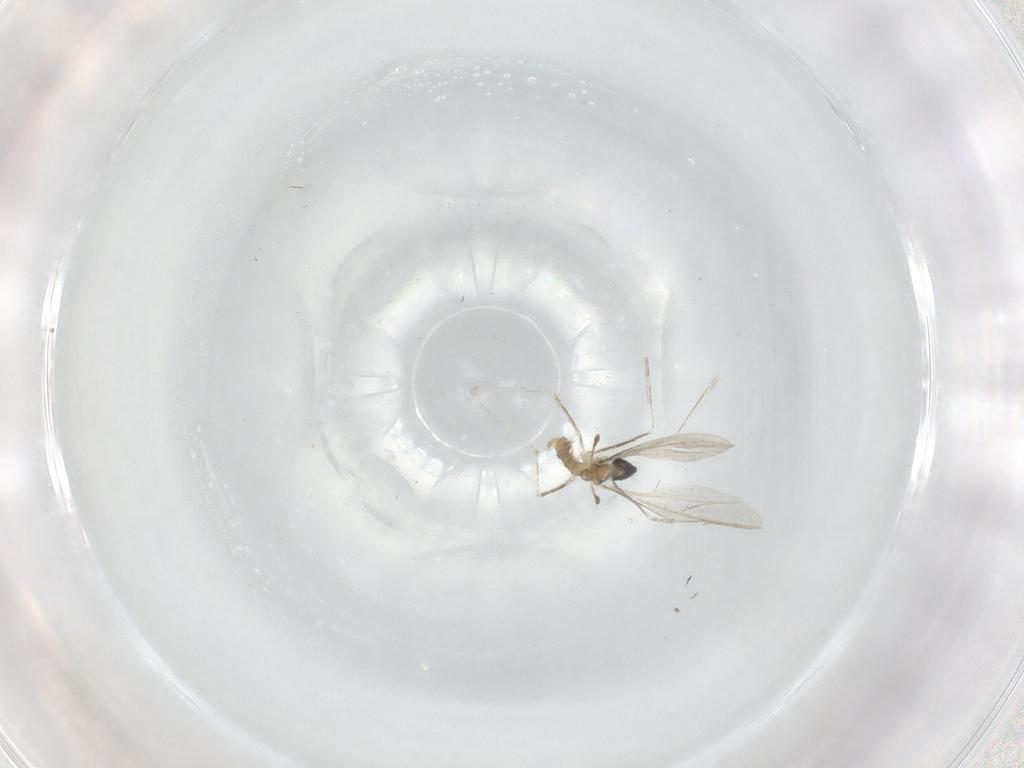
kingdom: Animalia
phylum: Arthropoda
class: Insecta
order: Diptera
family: Cecidomyiidae
